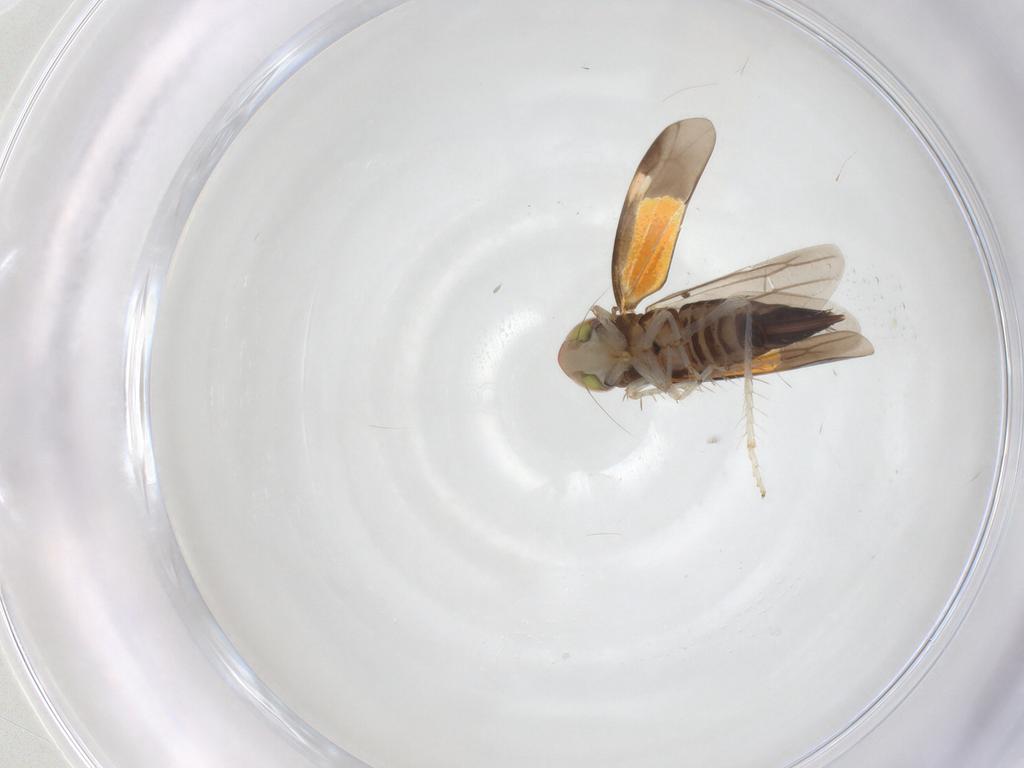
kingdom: Animalia
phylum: Arthropoda
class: Insecta
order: Hemiptera
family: Cicadellidae
